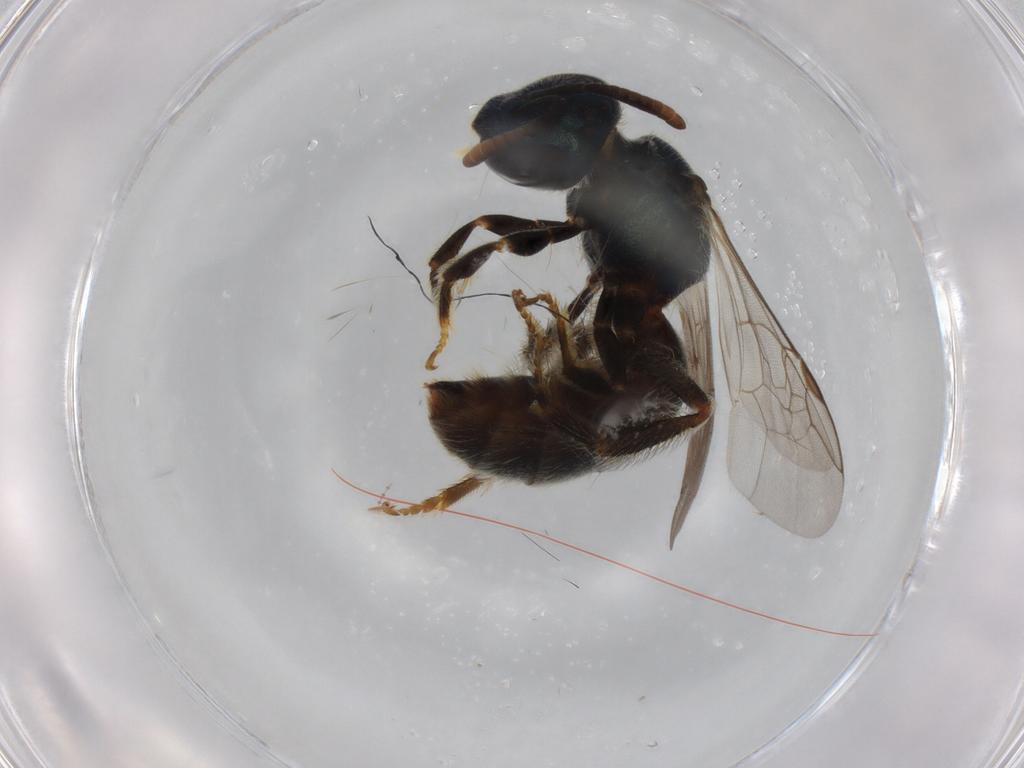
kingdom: Animalia
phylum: Arthropoda
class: Insecta
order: Hymenoptera
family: Halictidae
